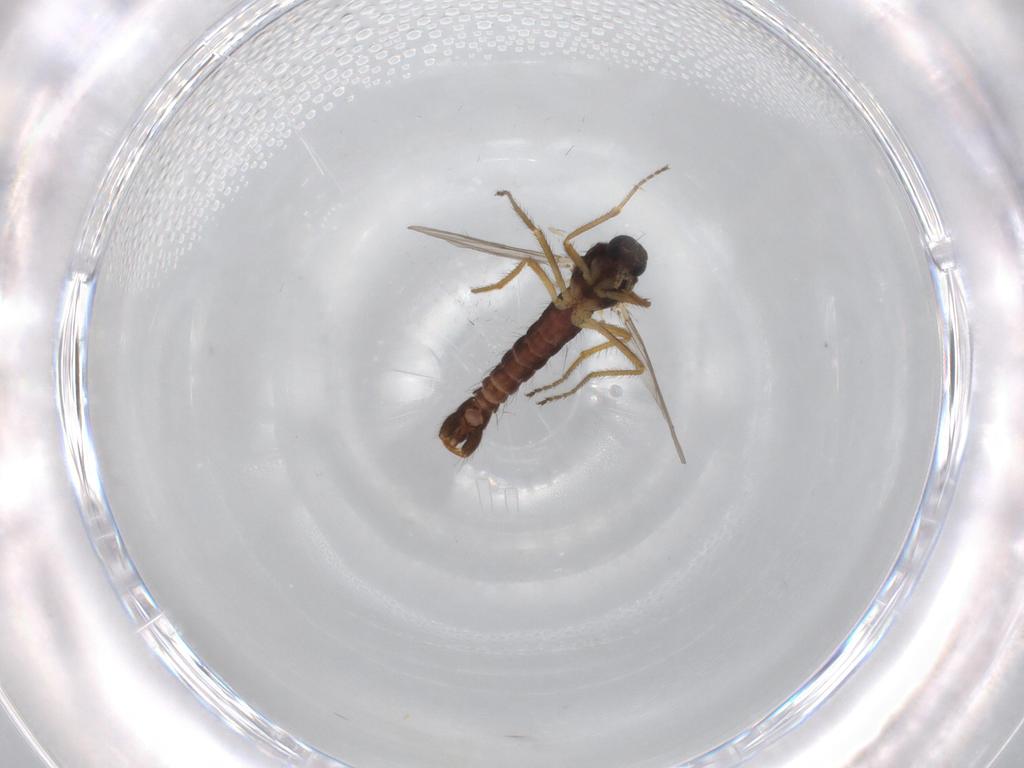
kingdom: Animalia
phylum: Arthropoda
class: Insecta
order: Diptera
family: Ceratopogonidae
